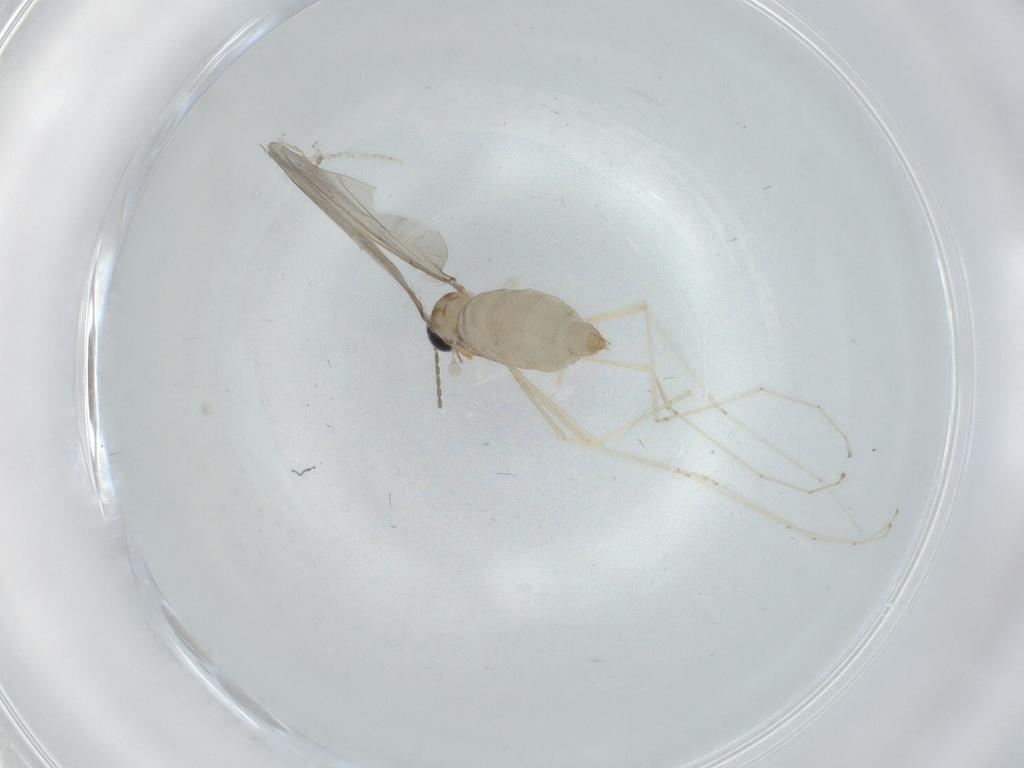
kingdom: Animalia
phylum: Arthropoda
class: Insecta
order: Diptera
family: Cecidomyiidae
